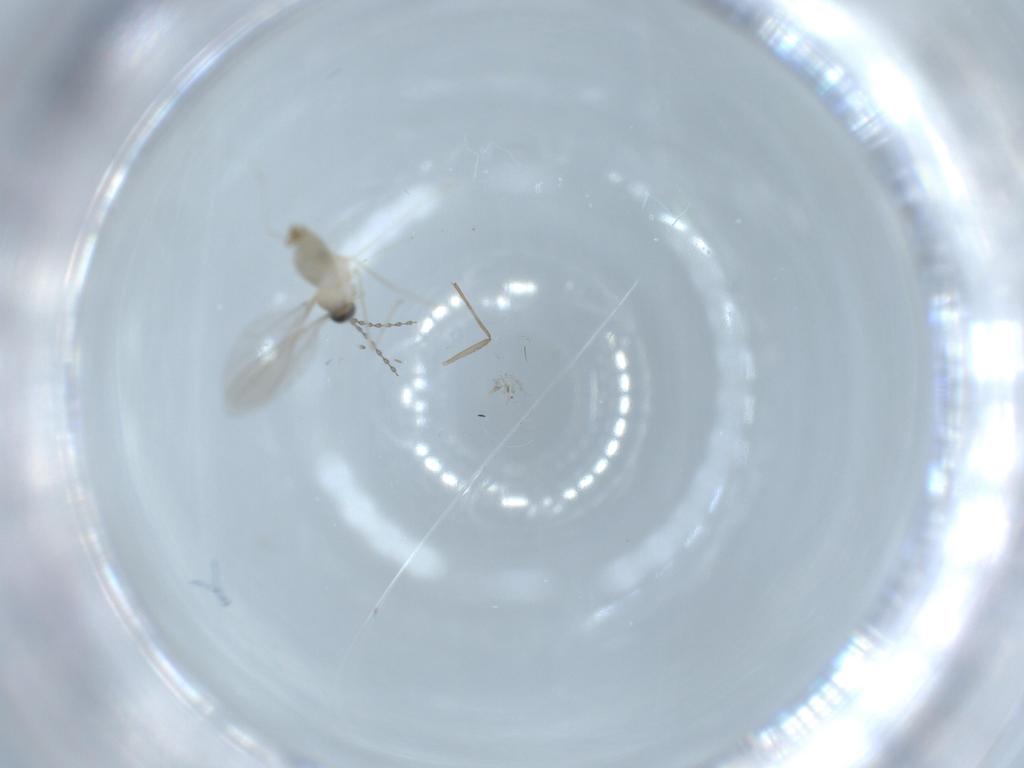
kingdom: Animalia
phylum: Arthropoda
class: Insecta
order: Diptera
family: Cecidomyiidae
